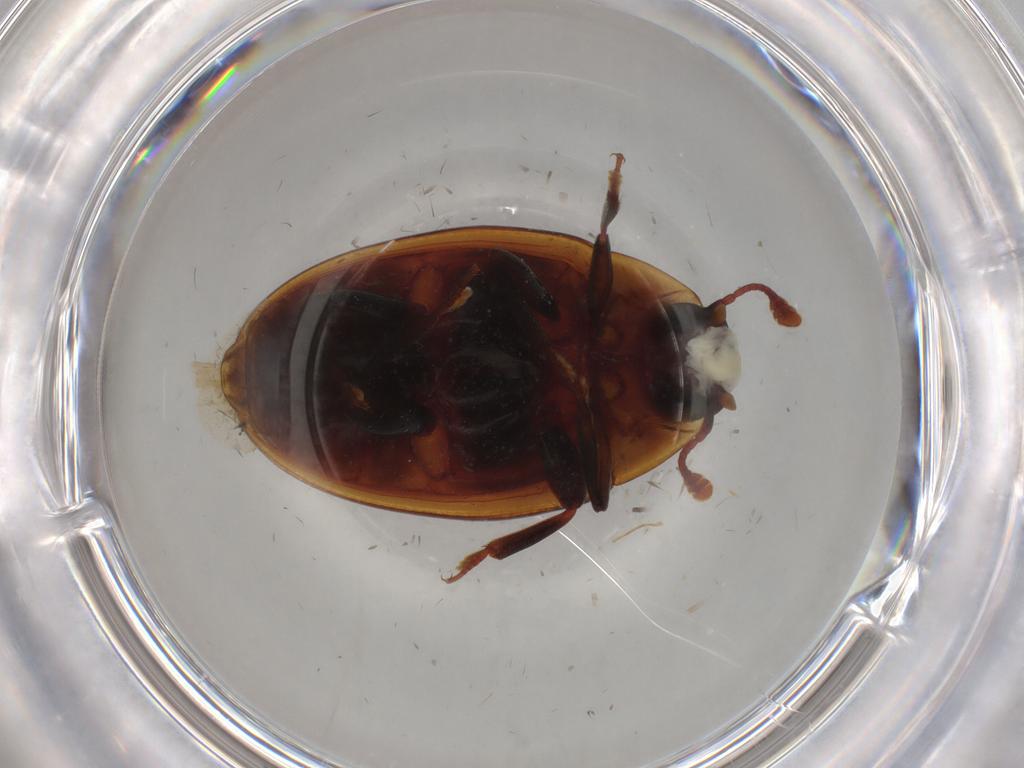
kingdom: Animalia
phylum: Arthropoda
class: Insecta
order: Coleoptera
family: Zopheridae
